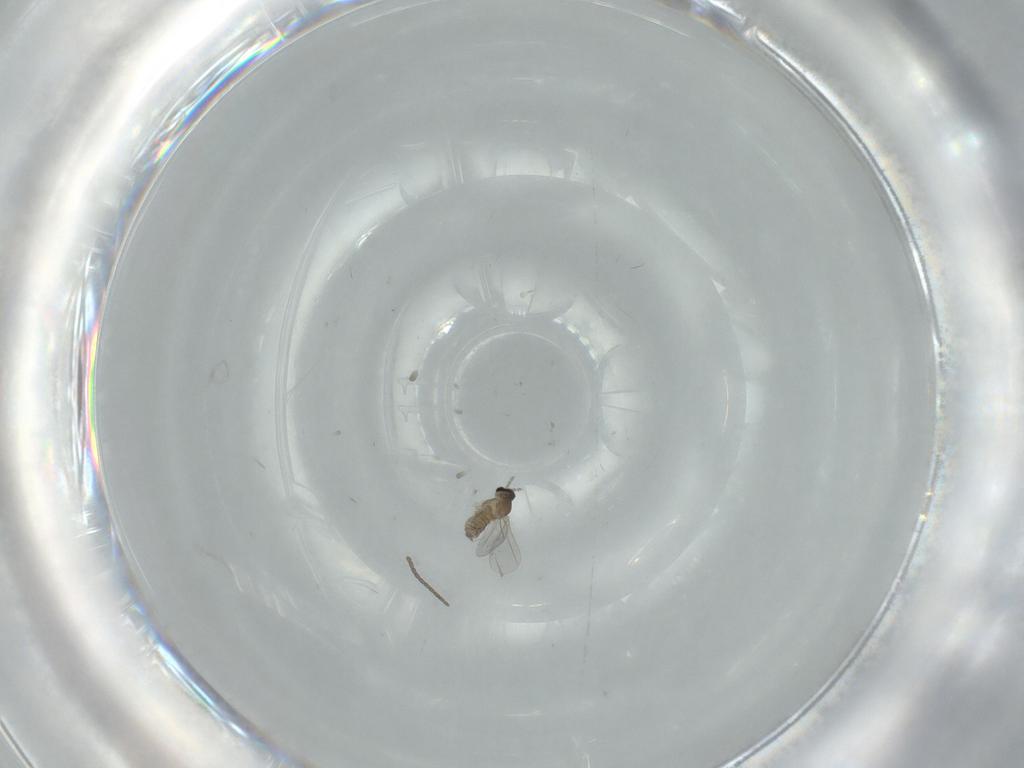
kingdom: Animalia
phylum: Arthropoda
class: Insecta
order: Diptera
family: Cecidomyiidae
